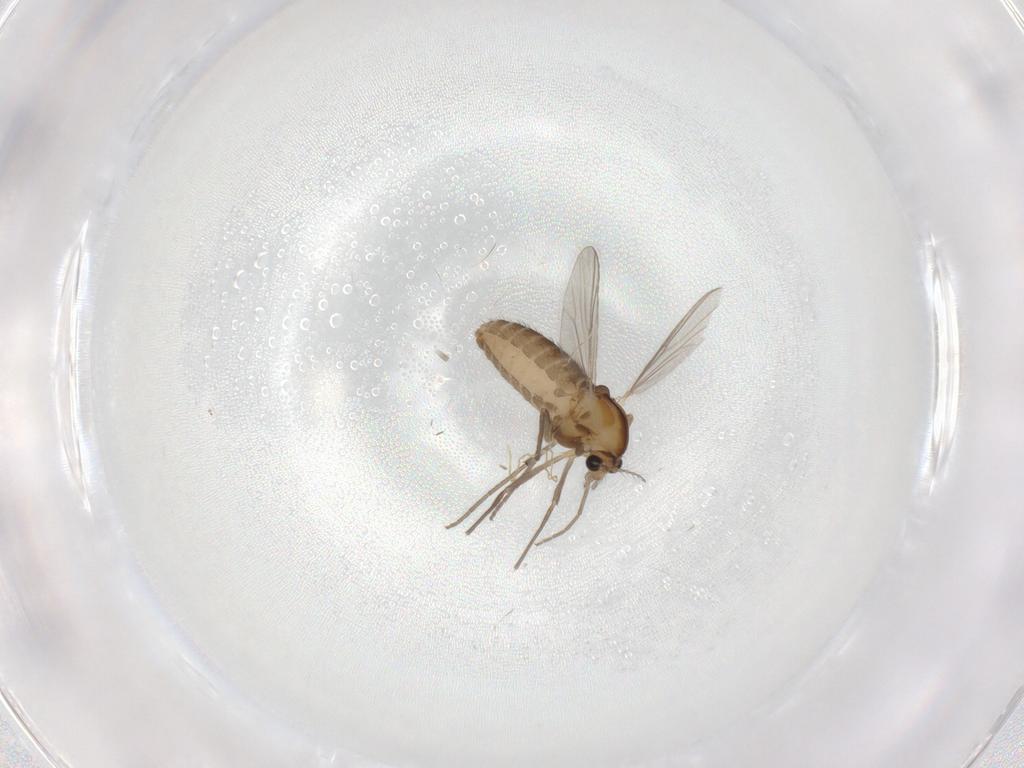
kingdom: Animalia
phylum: Arthropoda
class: Insecta
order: Diptera
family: Chironomidae
